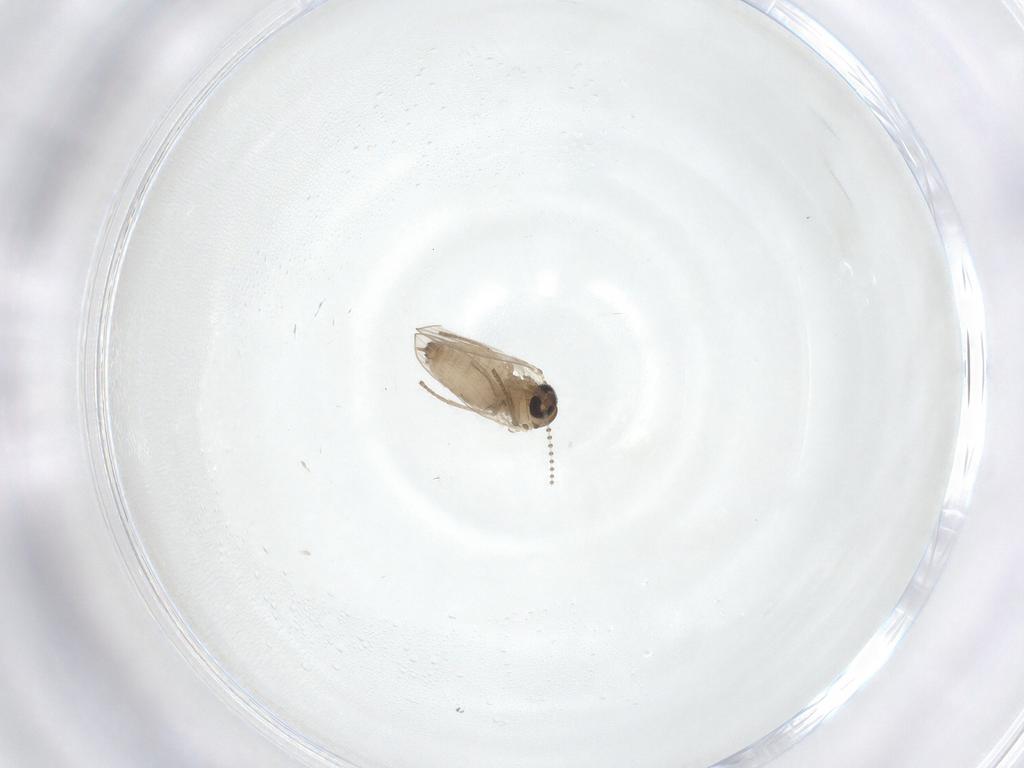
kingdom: Animalia
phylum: Arthropoda
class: Insecta
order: Diptera
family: Psychodidae
